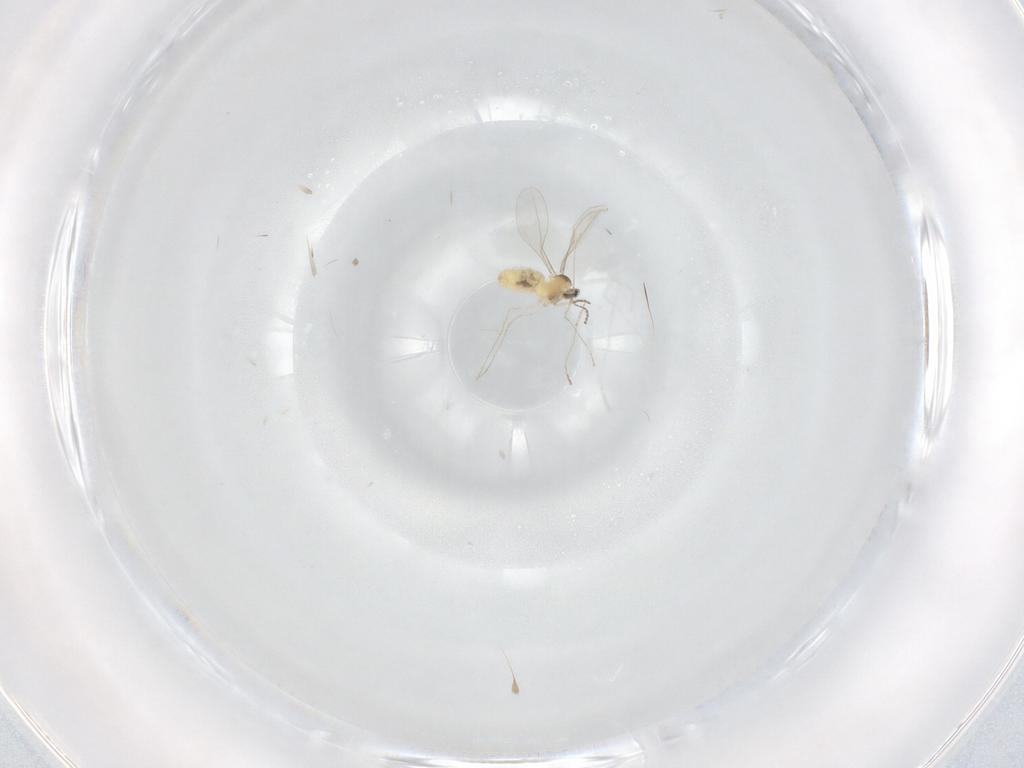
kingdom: Animalia
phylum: Arthropoda
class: Insecta
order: Diptera
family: Cecidomyiidae
